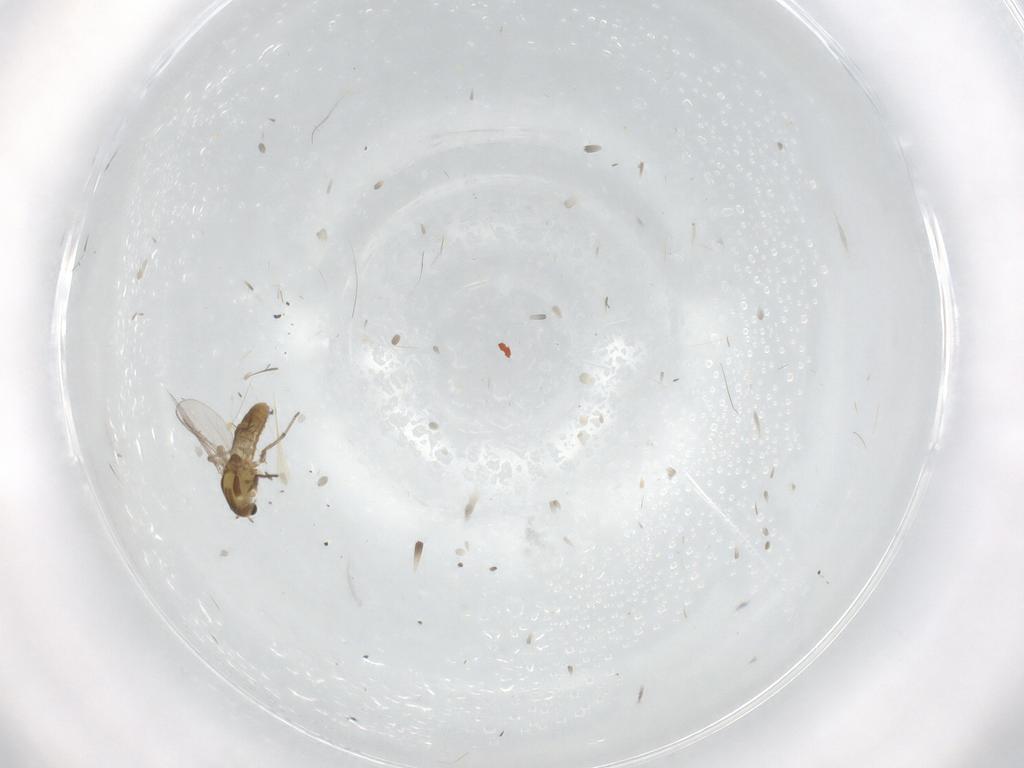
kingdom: Animalia
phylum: Arthropoda
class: Insecta
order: Diptera
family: Chironomidae
